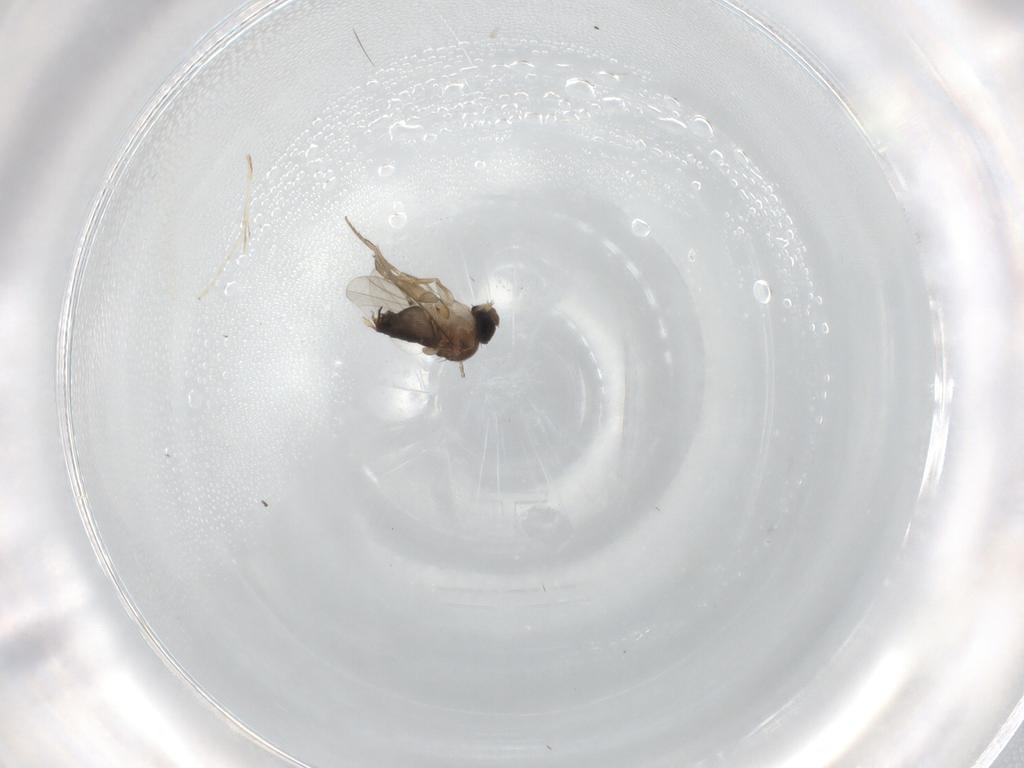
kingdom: Animalia
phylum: Arthropoda
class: Insecta
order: Diptera
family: Phoridae
